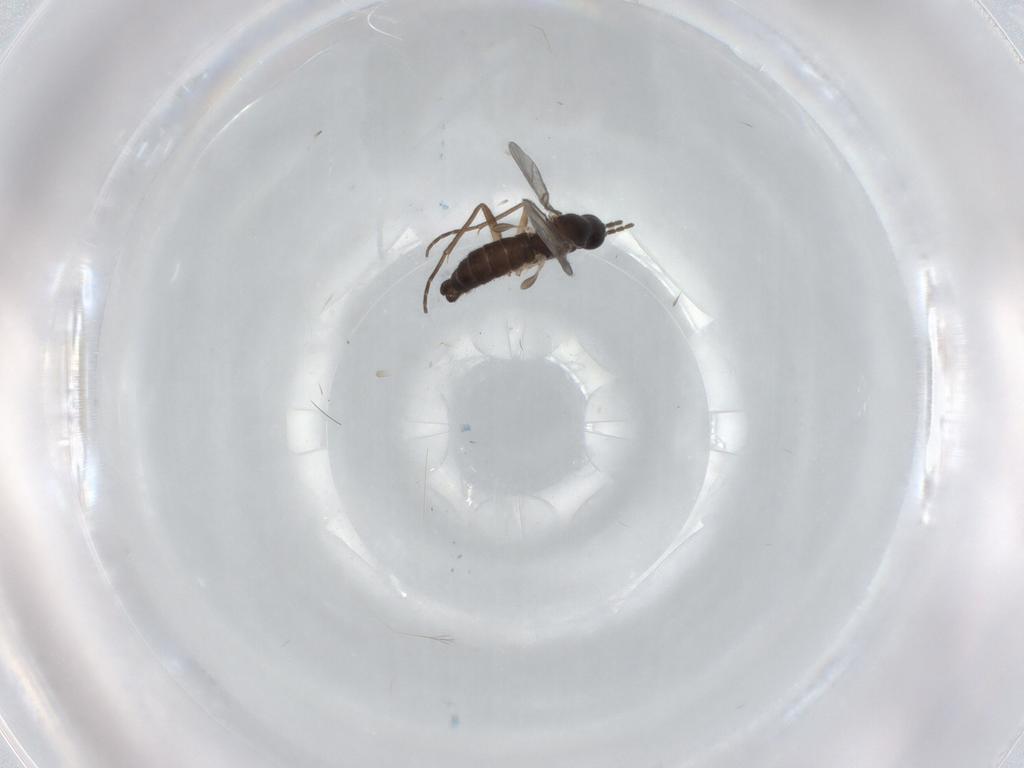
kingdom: Animalia
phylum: Arthropoda
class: Insecta
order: Diptera
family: Sciaridae
